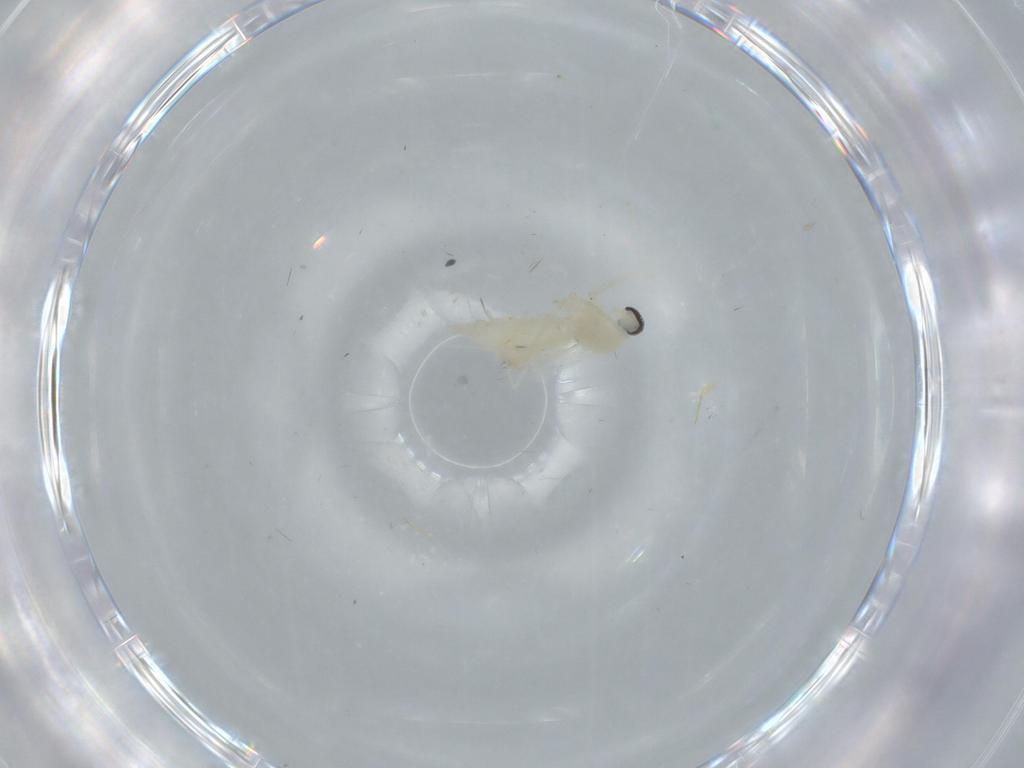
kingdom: Animalia
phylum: Arthropoda
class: Insecta
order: Diptera
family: Cecidomyiidae
